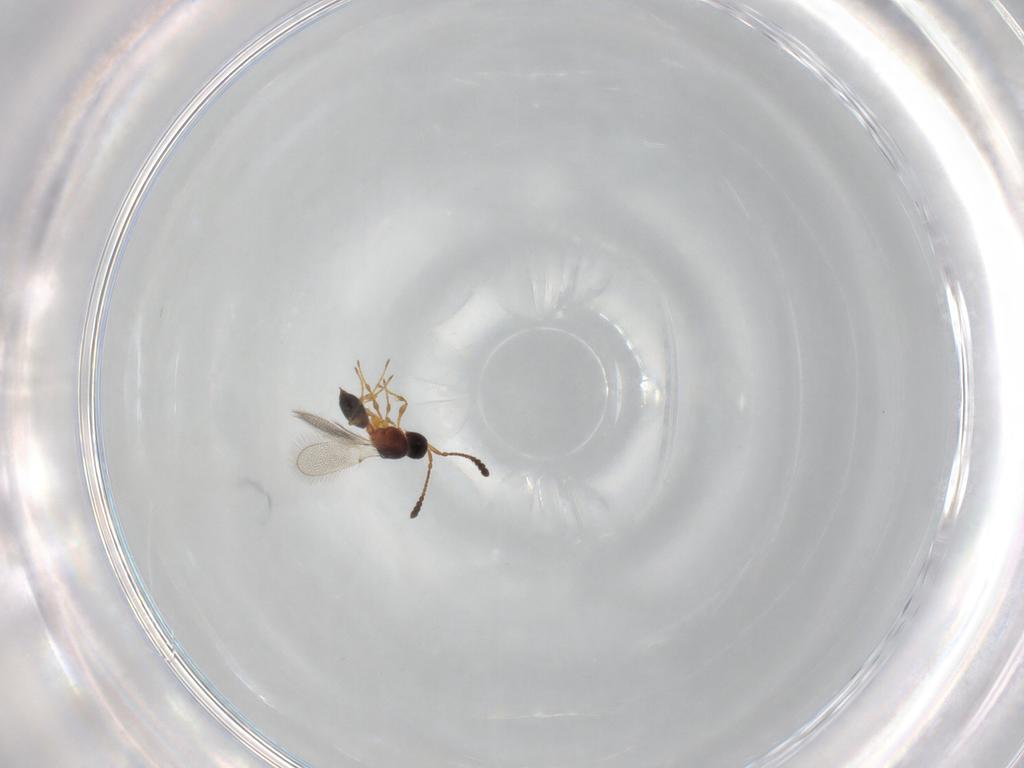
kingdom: Animalia
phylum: Arthropoda
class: Insecta
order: Hymenoptera
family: Diapriidae
